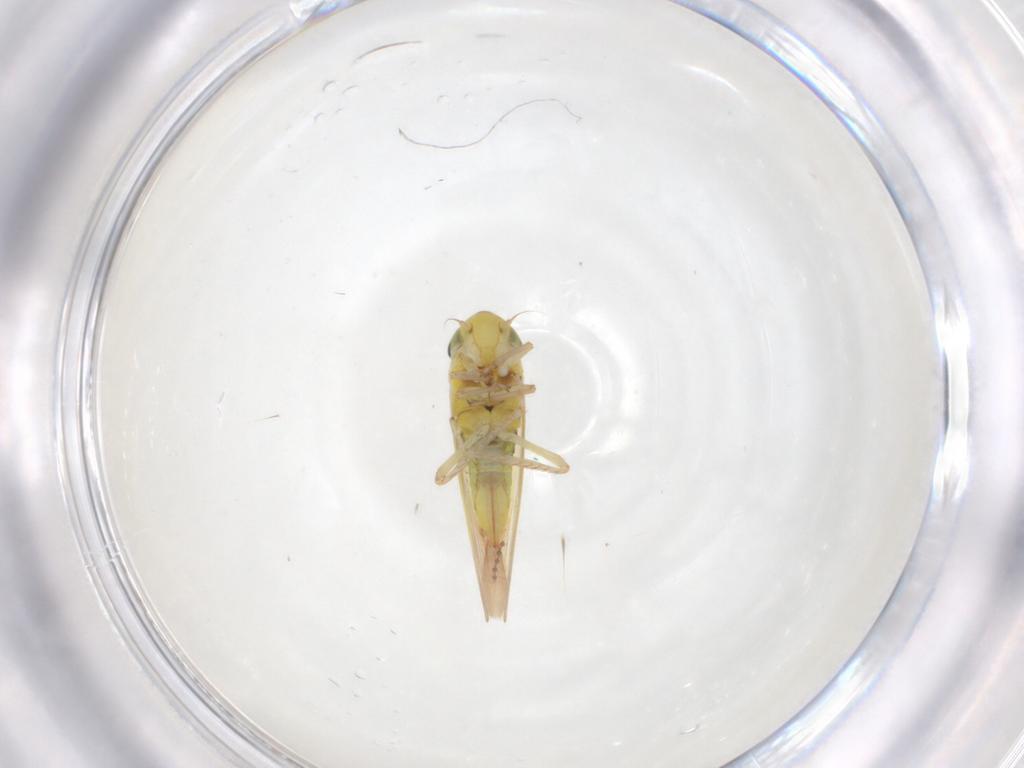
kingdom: Animalia
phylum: Arthropoda
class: Insecta
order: Hemiptera
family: Cicadellidae
